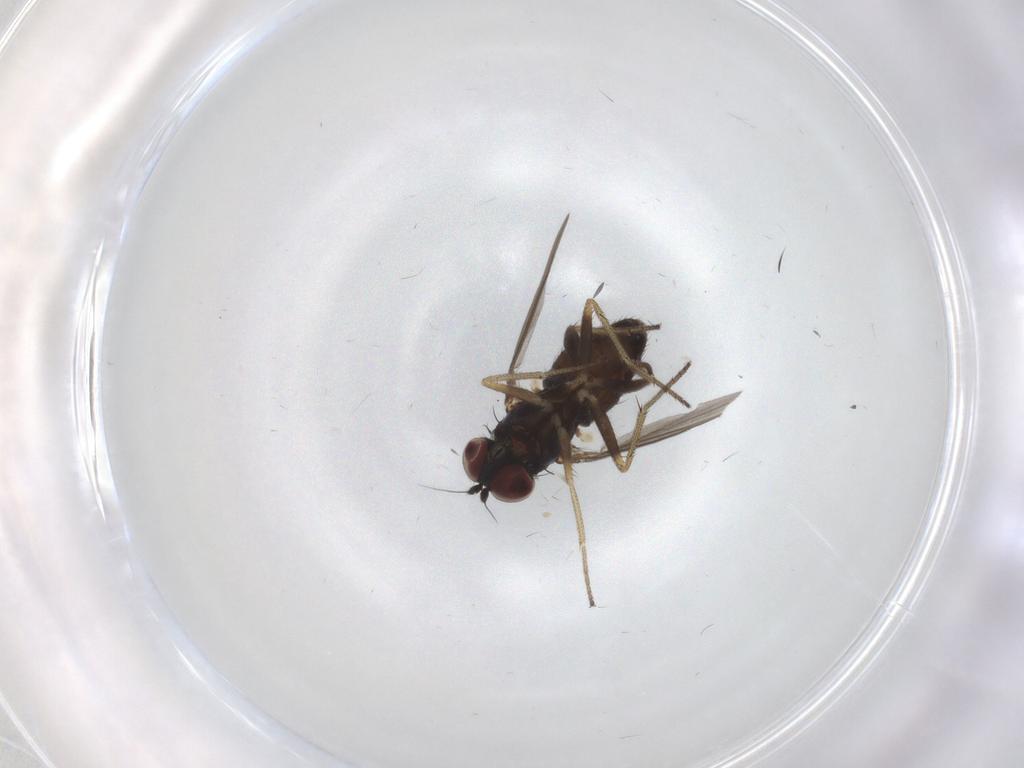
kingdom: Animalia
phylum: Arthropoda
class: Insecta
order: Diptera
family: Dolichopodidae
